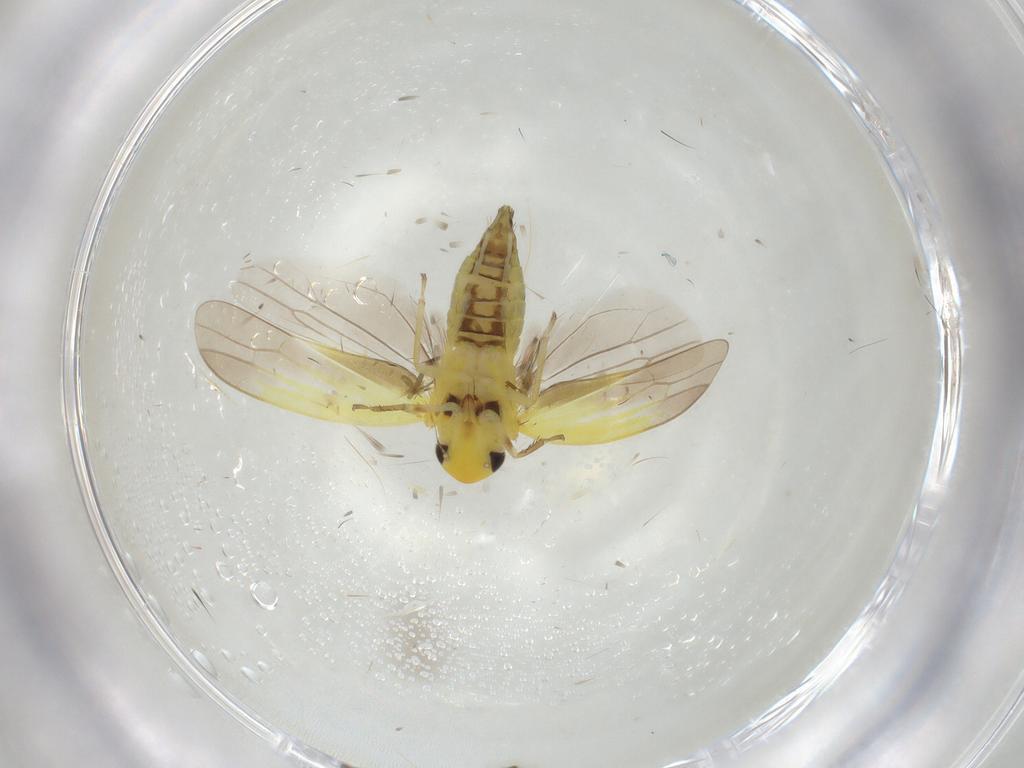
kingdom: Animalia
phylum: Arthropoda
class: Insecta
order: Hemiptera
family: Cicadellidae
